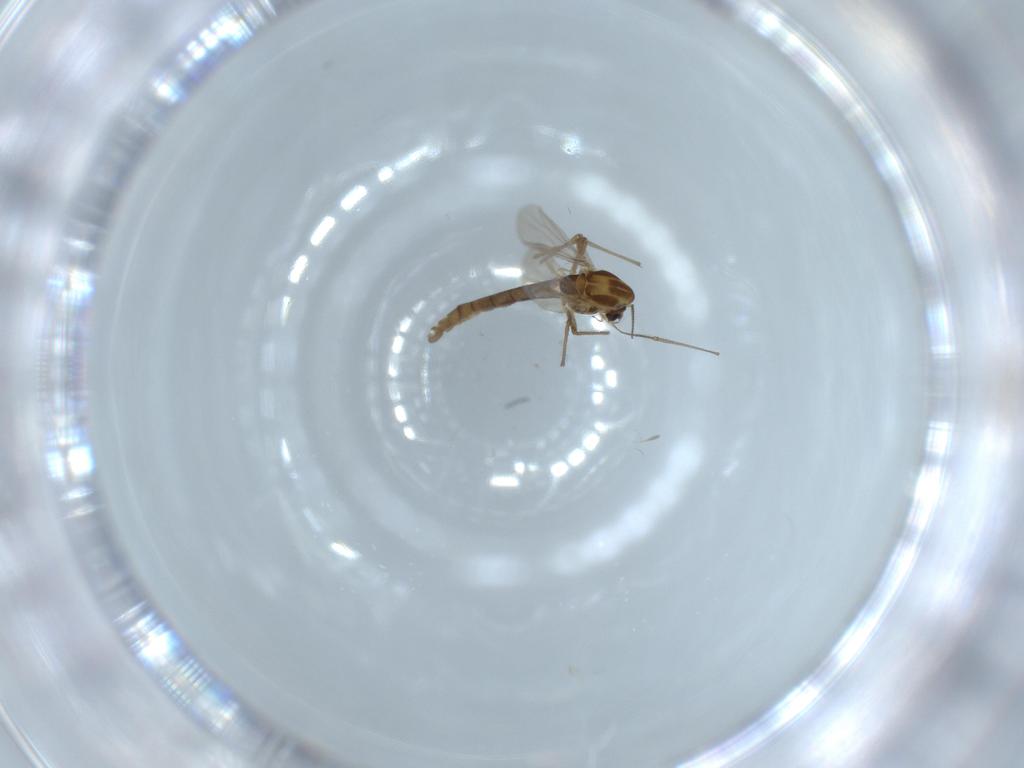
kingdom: Animalia
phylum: Arthropoda
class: Insecta
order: Diptera
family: Chironomidae
